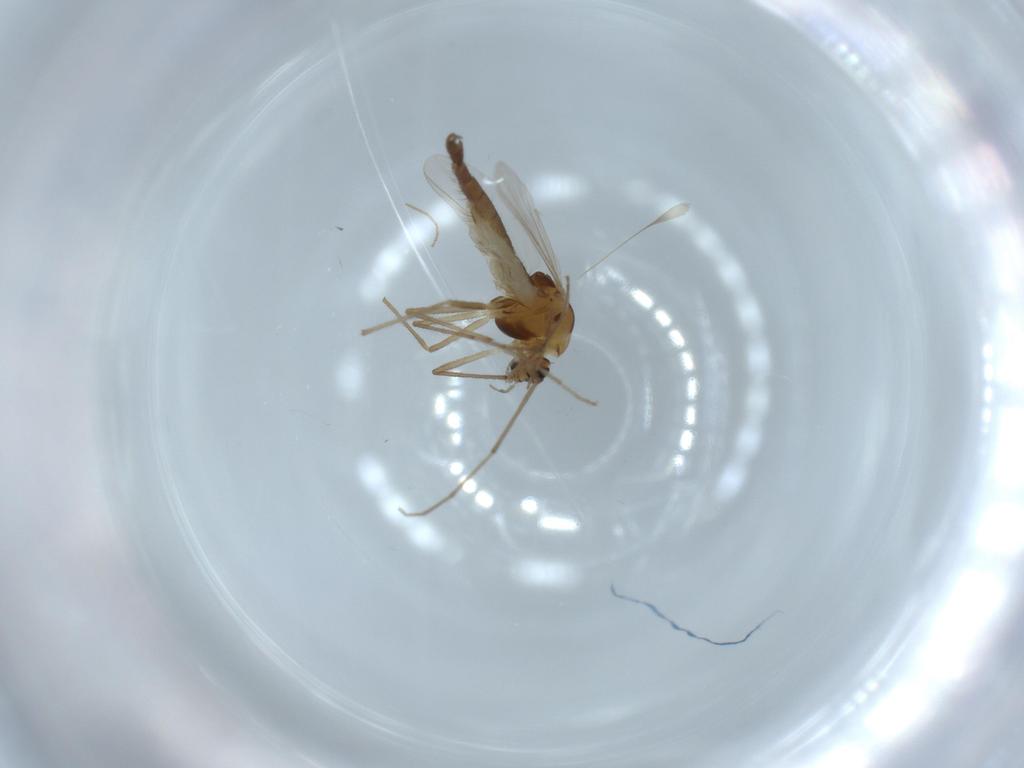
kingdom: Animalia
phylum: Arthropoda
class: Insecta
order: Diptera
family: Chironomidae
